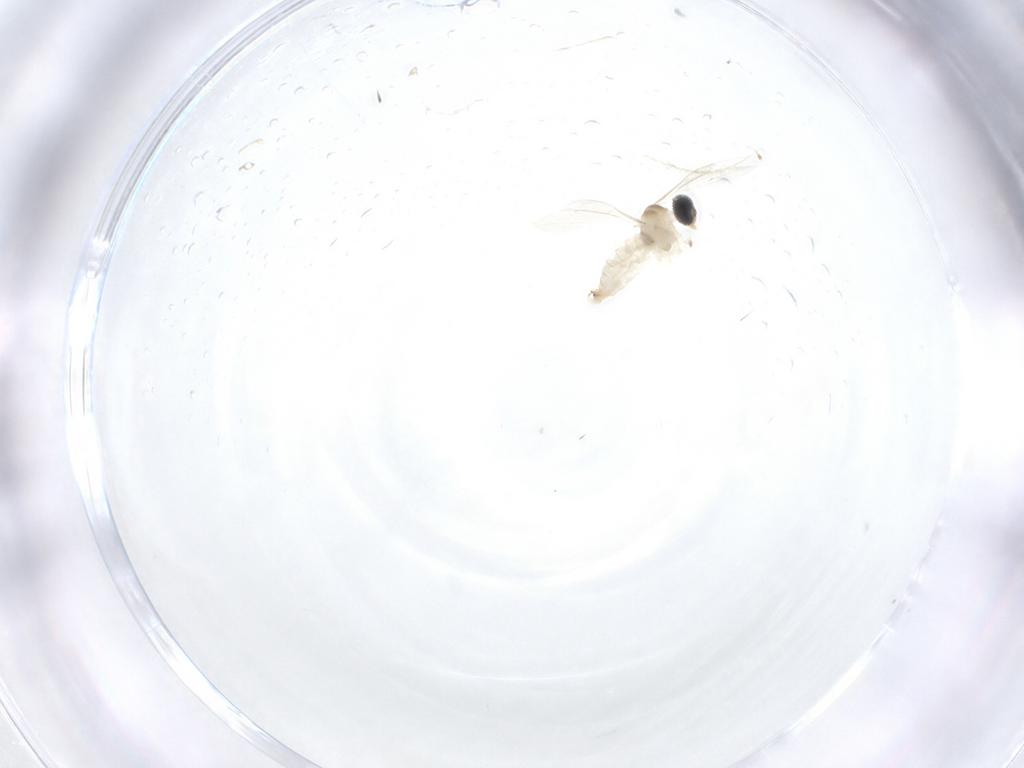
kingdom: Animalia
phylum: Arthropoda
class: Insecta
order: Diptera
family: Cecidomyiidae
